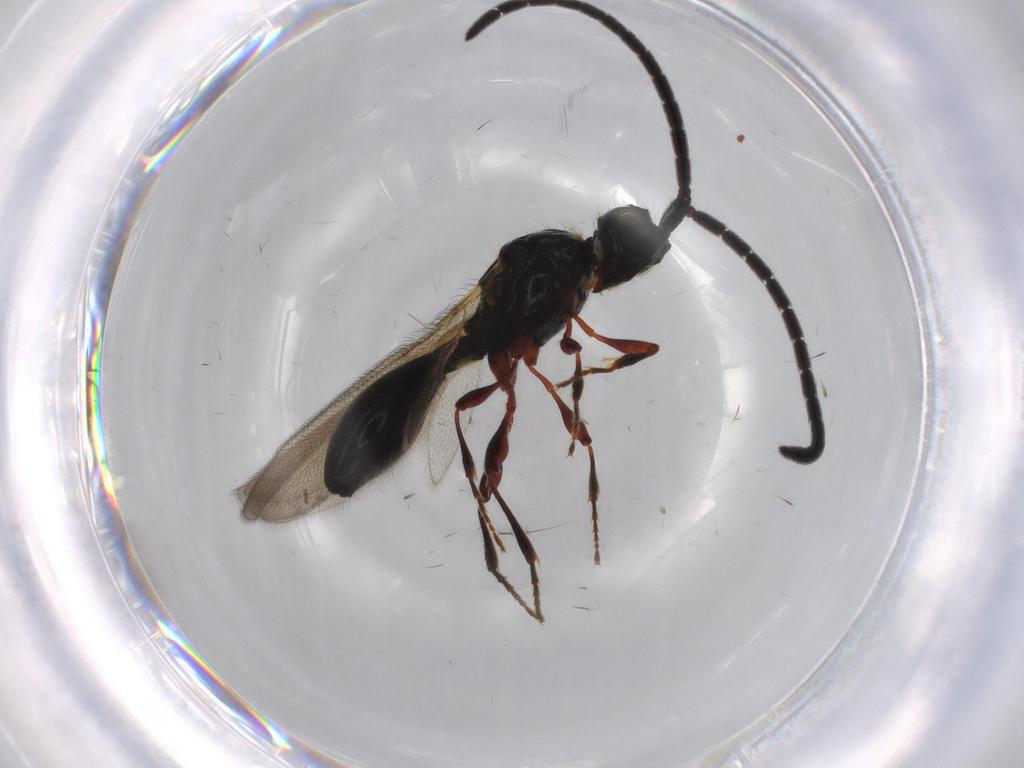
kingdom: Animalia
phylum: Arthropoda
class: Insecta
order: Hymenoptera
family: Diapriidae
